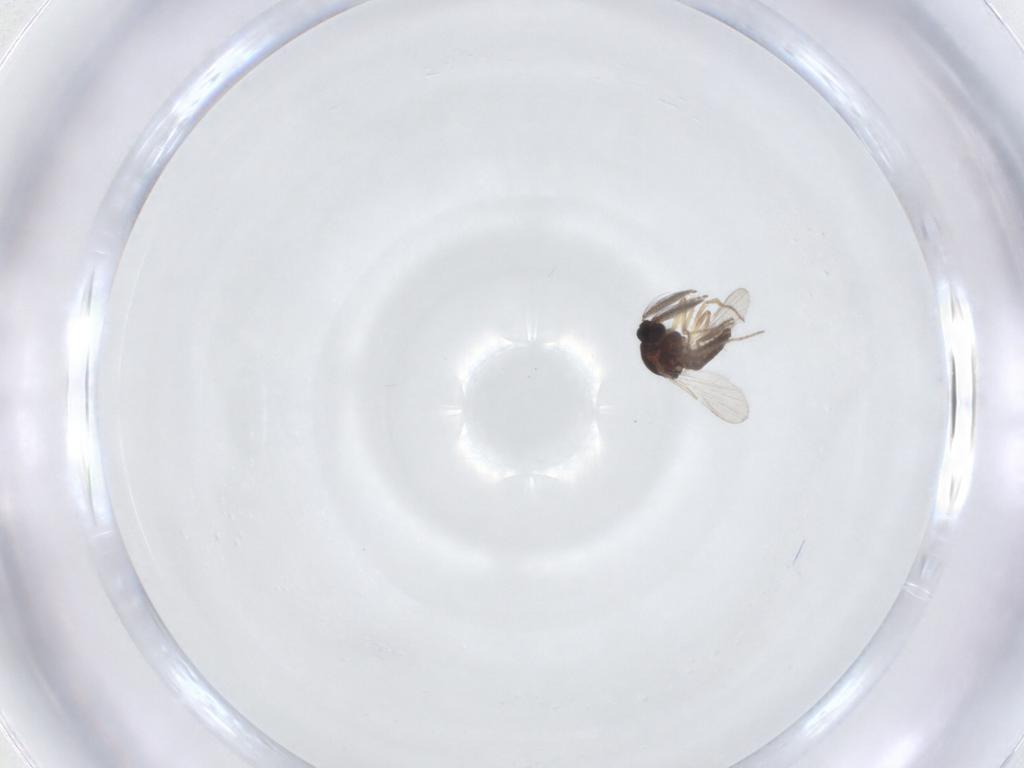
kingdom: Animalia
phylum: Arthropoda
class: Insecta
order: Diptera
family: Ceratopogonidae
